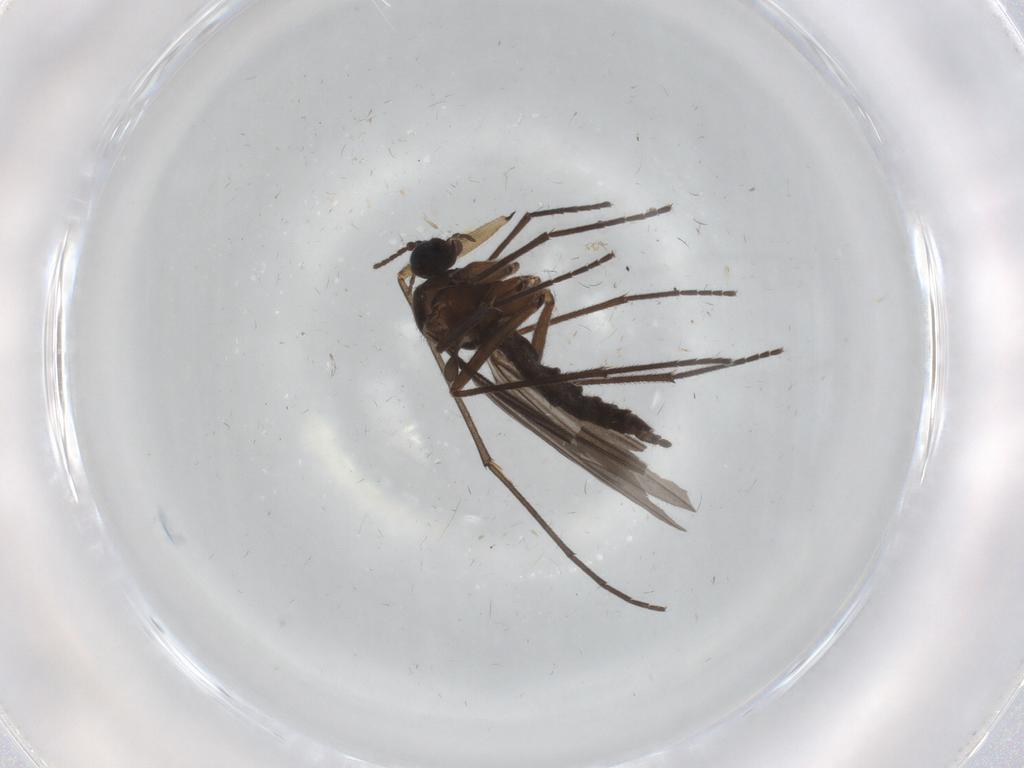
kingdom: Animalia
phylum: Arthropoda
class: Insecta
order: Diptera
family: Sciaridae
